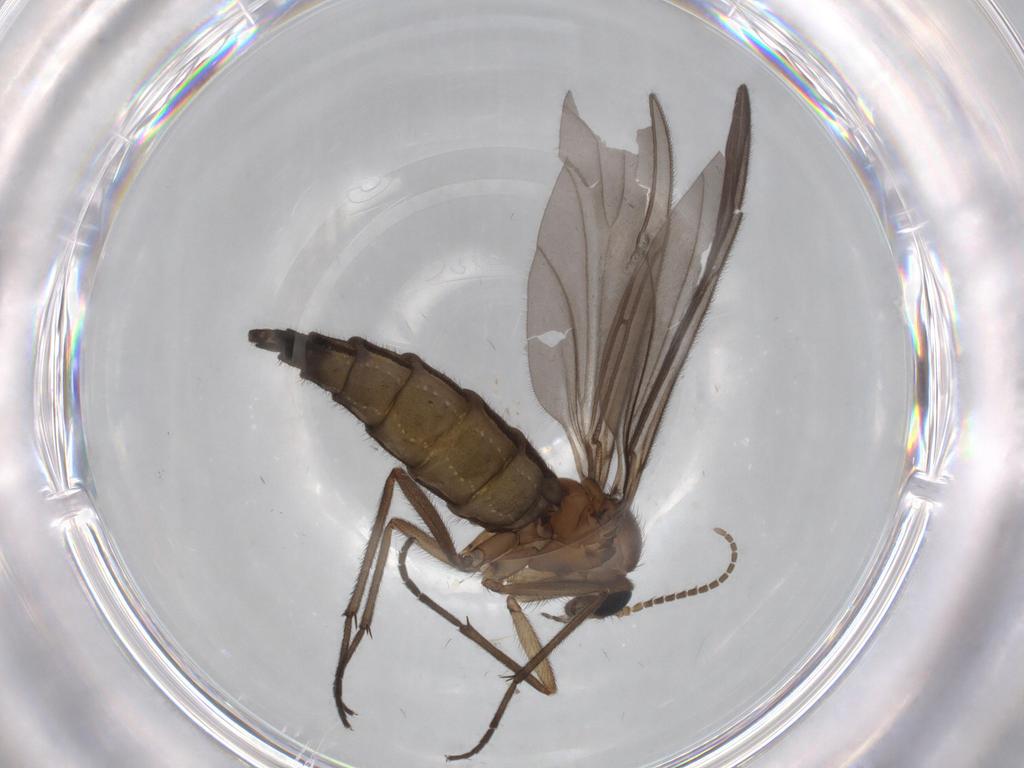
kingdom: Animalia
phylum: Arthropoda
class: Insecta
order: Diptera
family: Sciaridae
